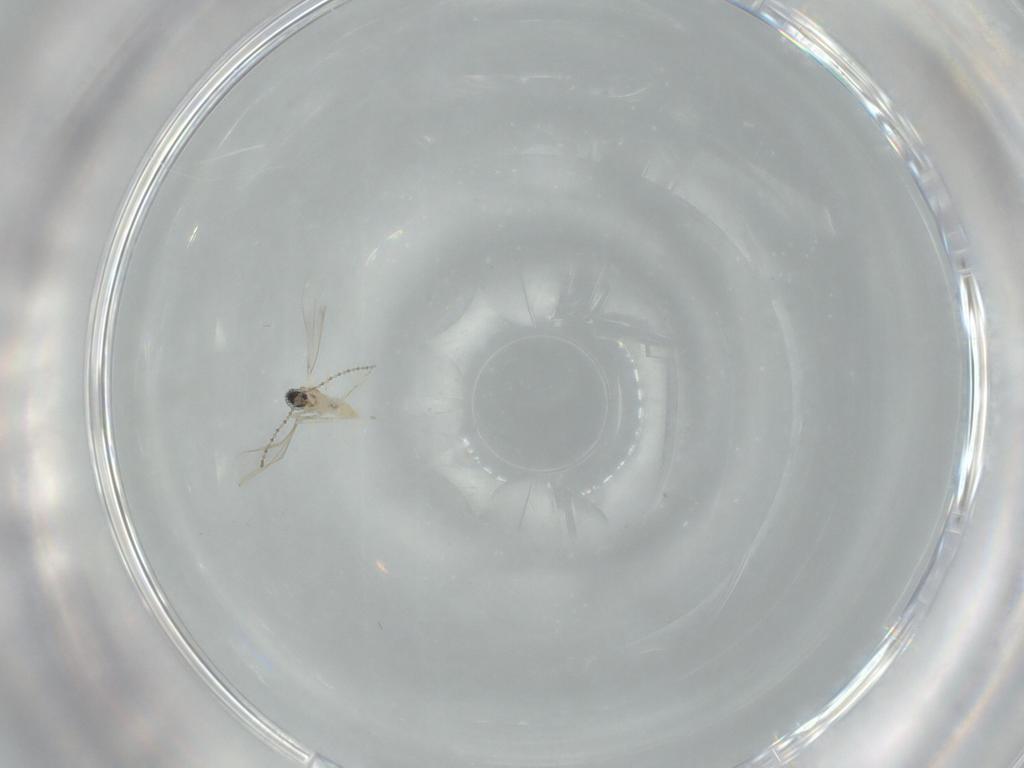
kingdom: Animalia
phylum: Arthropoda
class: Insecta
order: Diptera
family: Cecidomyiidae
